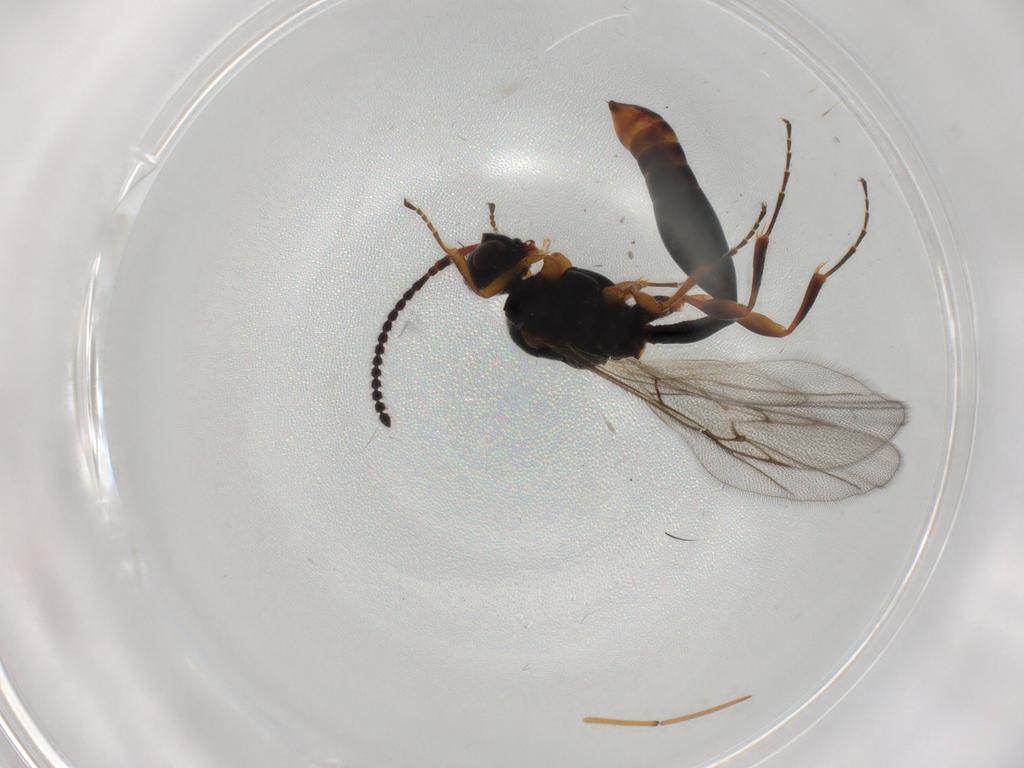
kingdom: Animalia
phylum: Arthropoda
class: Insecta
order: Hymenoptera
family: Diapriidae
